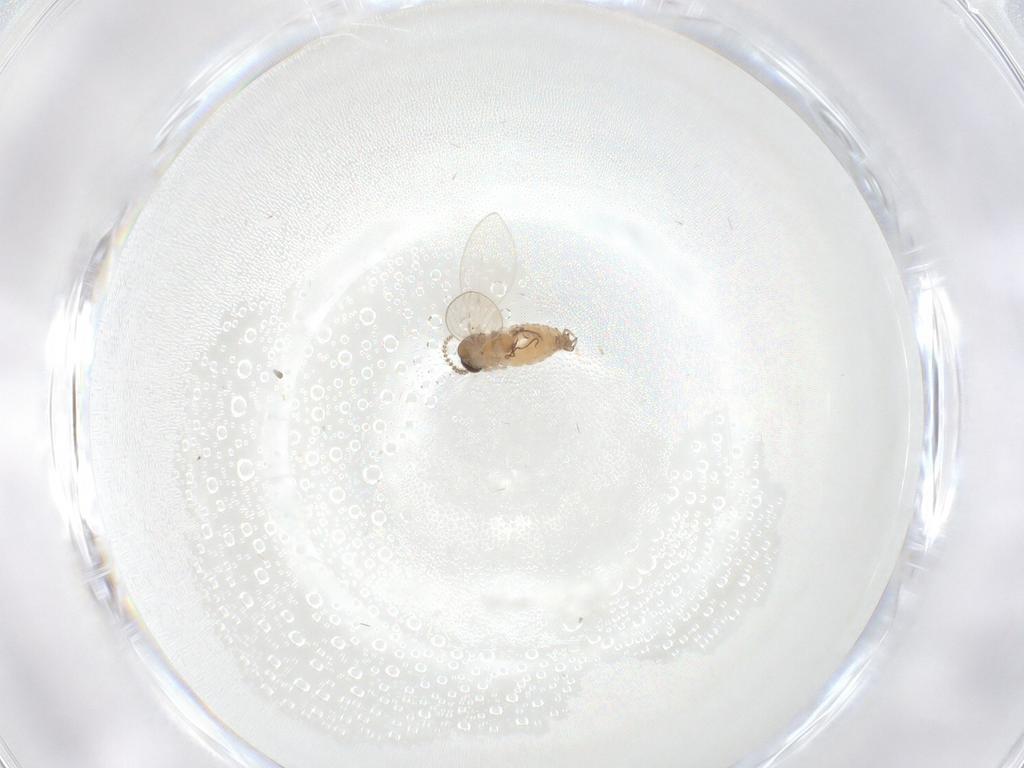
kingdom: Animalia
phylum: Arthropoda
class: Insecta
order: Diptera
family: Psychodidae
